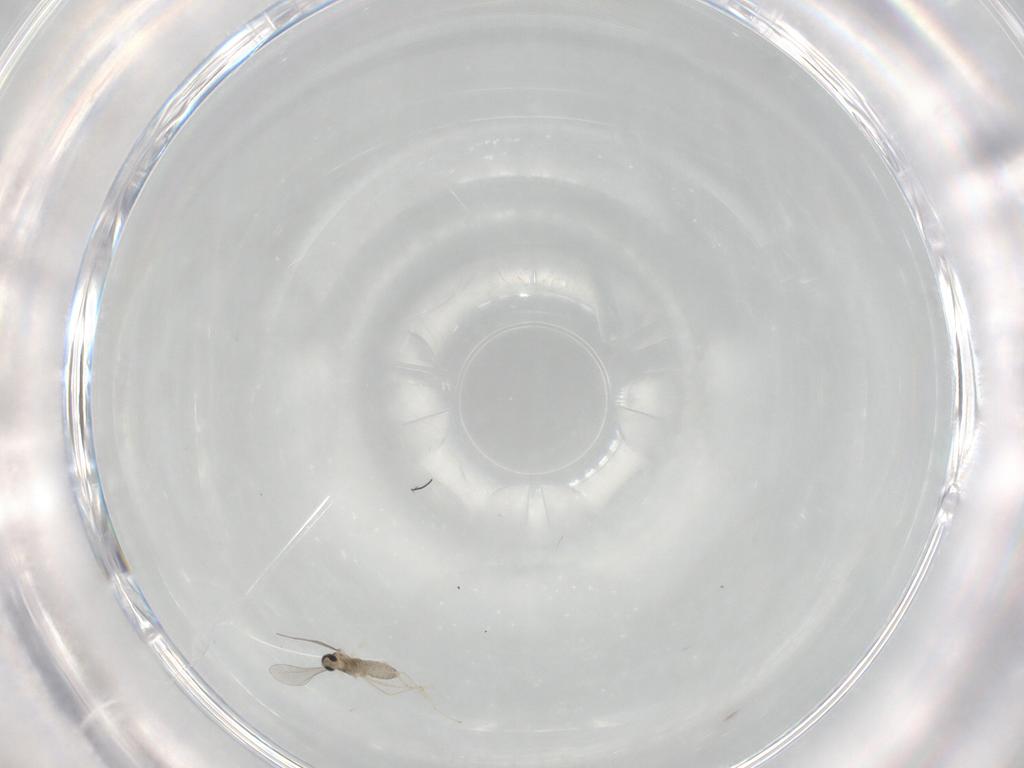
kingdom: Animalia
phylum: Arthropoda
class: Insecta
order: Diptera
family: Cecidomyiidae
